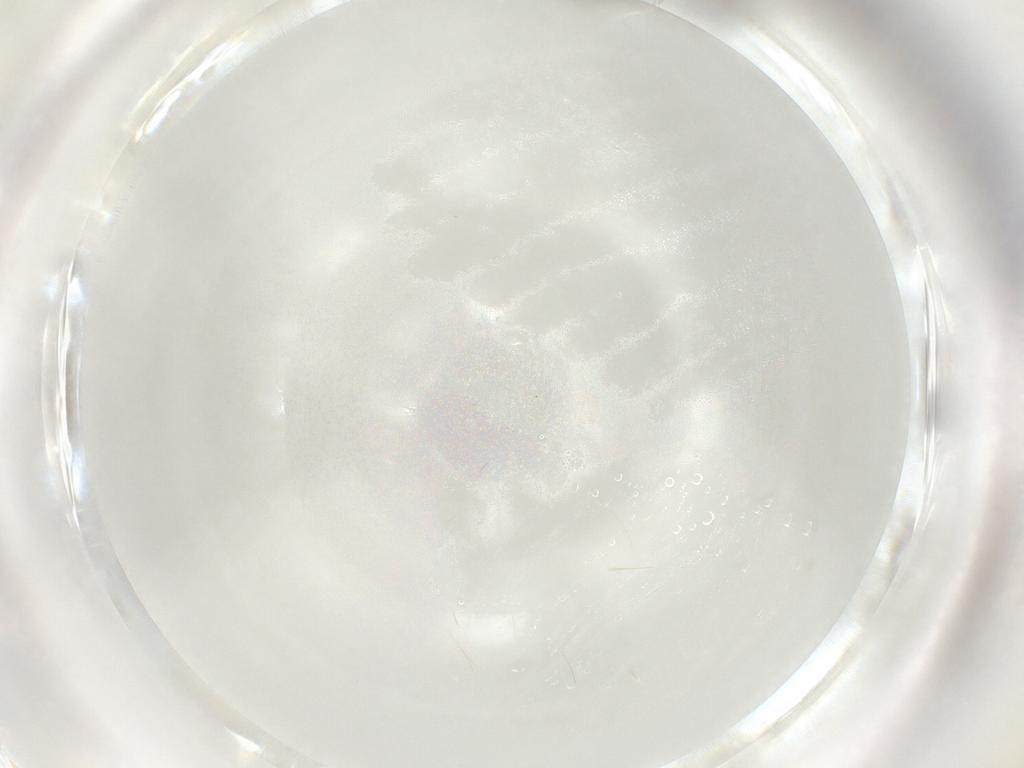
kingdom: Animalia
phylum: Arthropoda
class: Insecta
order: Diptera
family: Chironomidae
